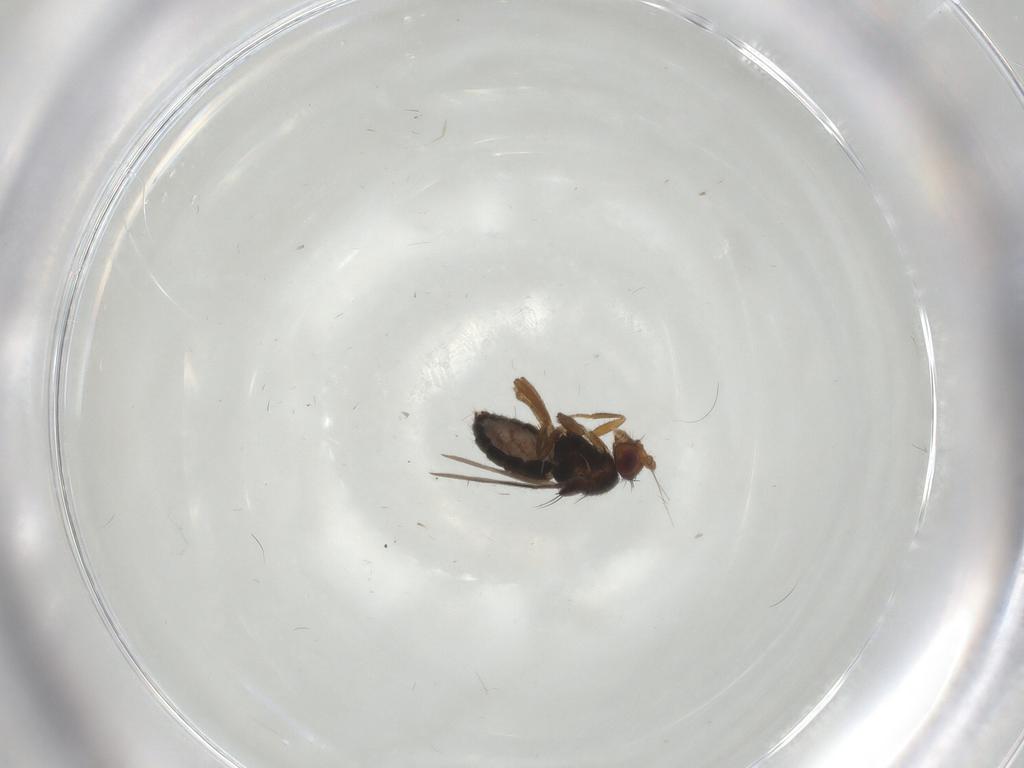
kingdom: Animalia
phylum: Arthropoda
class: Insecta
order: Diptera
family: Sphaeroceridae
